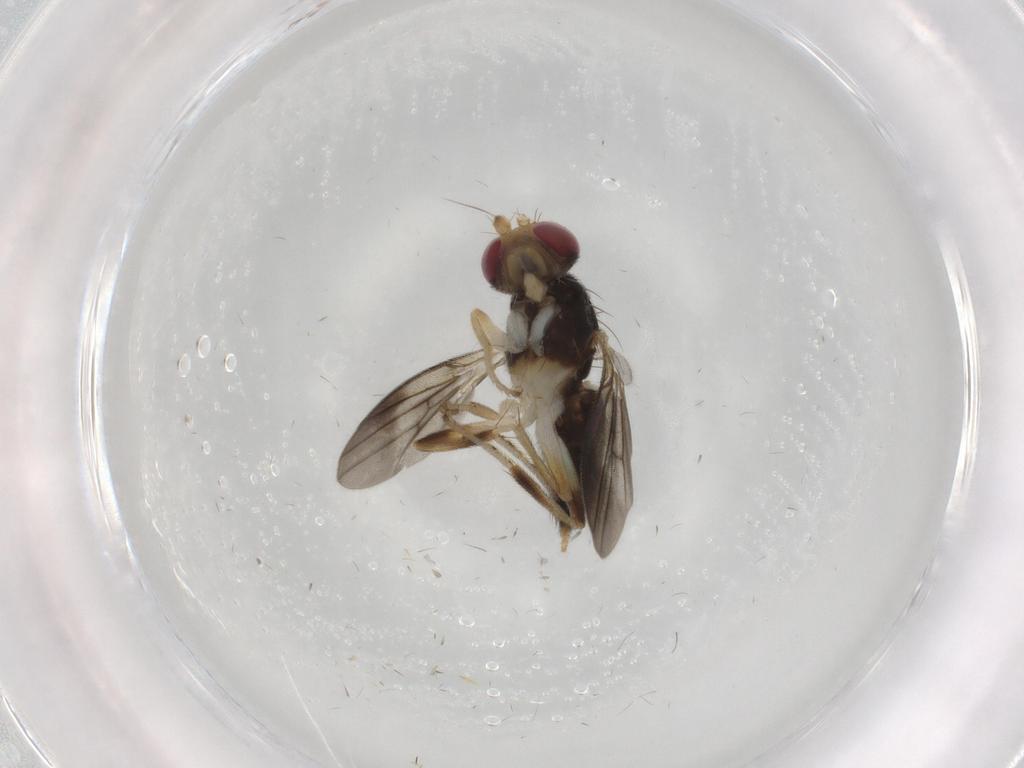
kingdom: Animalia
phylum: Arthropoda
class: Insecta
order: Diptera
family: Clusiidae
